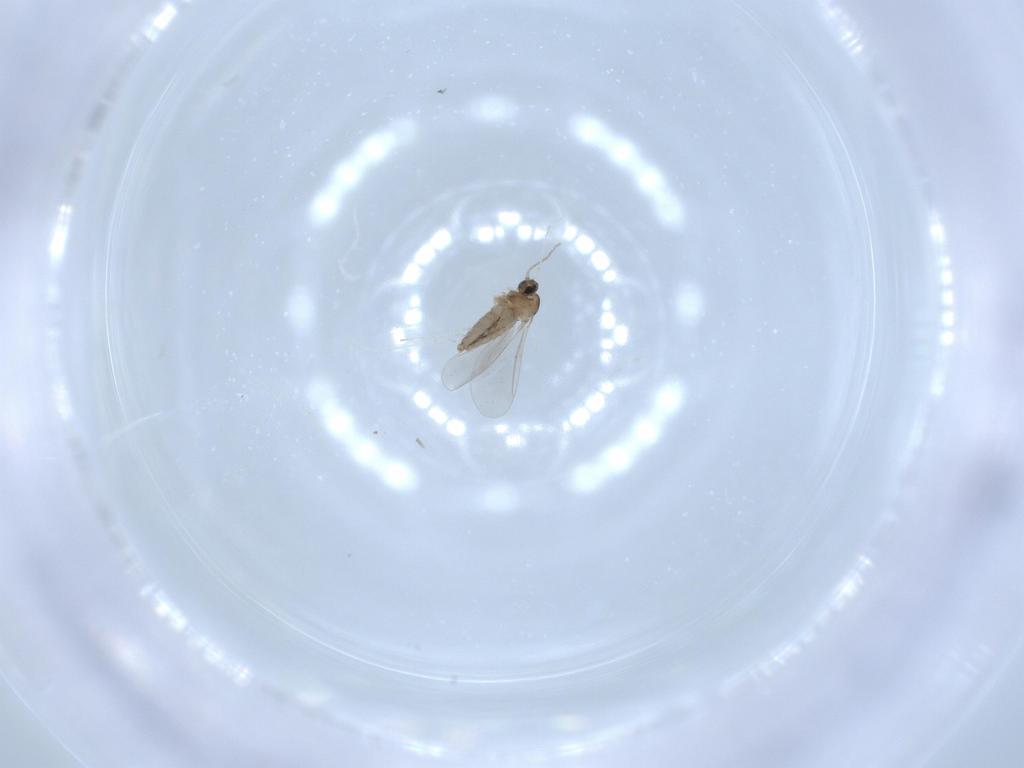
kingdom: Animalia
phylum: Arthropoda
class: Insecta
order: Diptera
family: Cecidomyiidae
